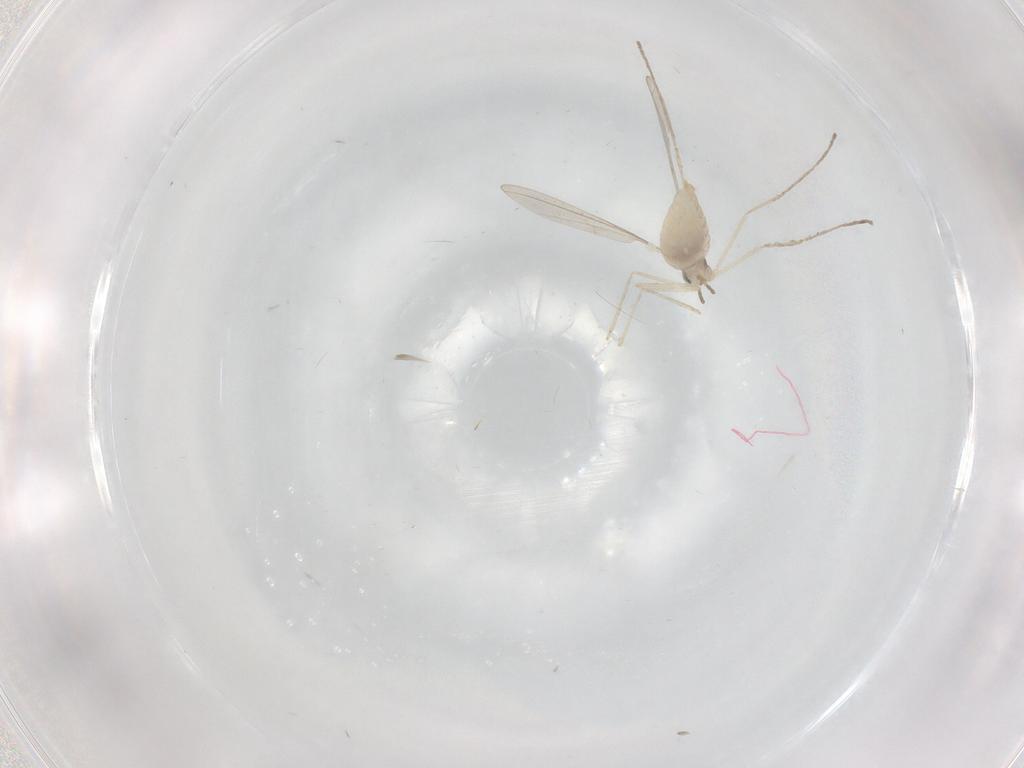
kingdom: Animalia
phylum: Arthropoda
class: Insecta
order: Diptera
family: Cecidomyiidae
